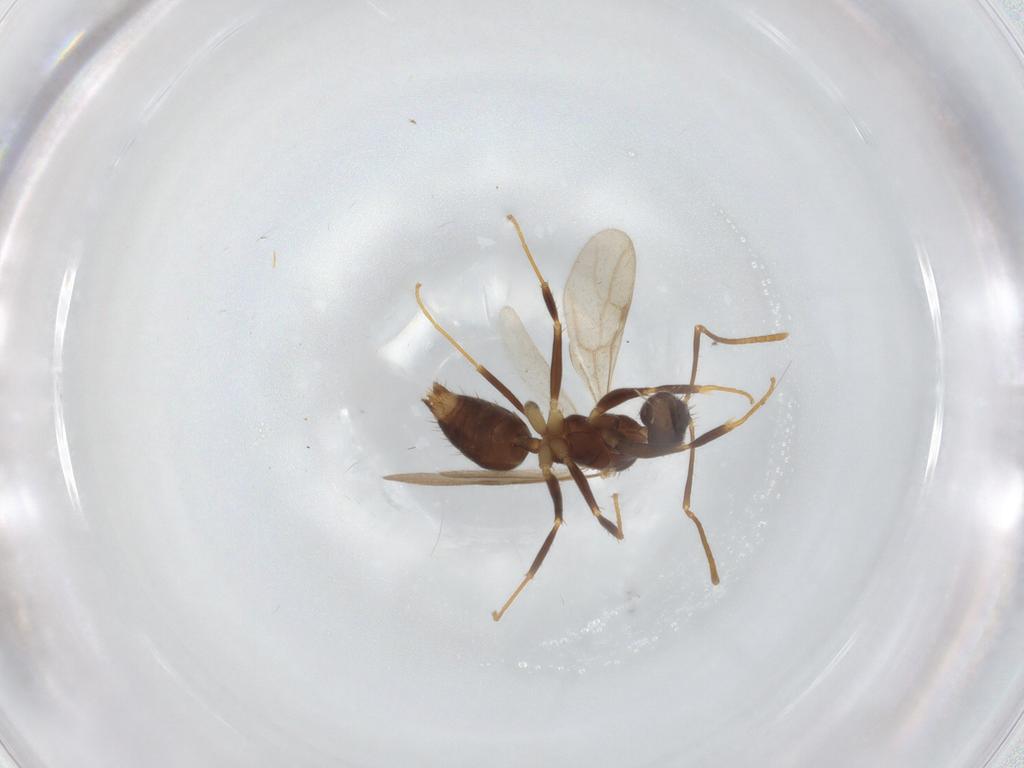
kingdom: Animalia
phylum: Arthropoda
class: Insecta
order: Hymenoptera
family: Formicidae
